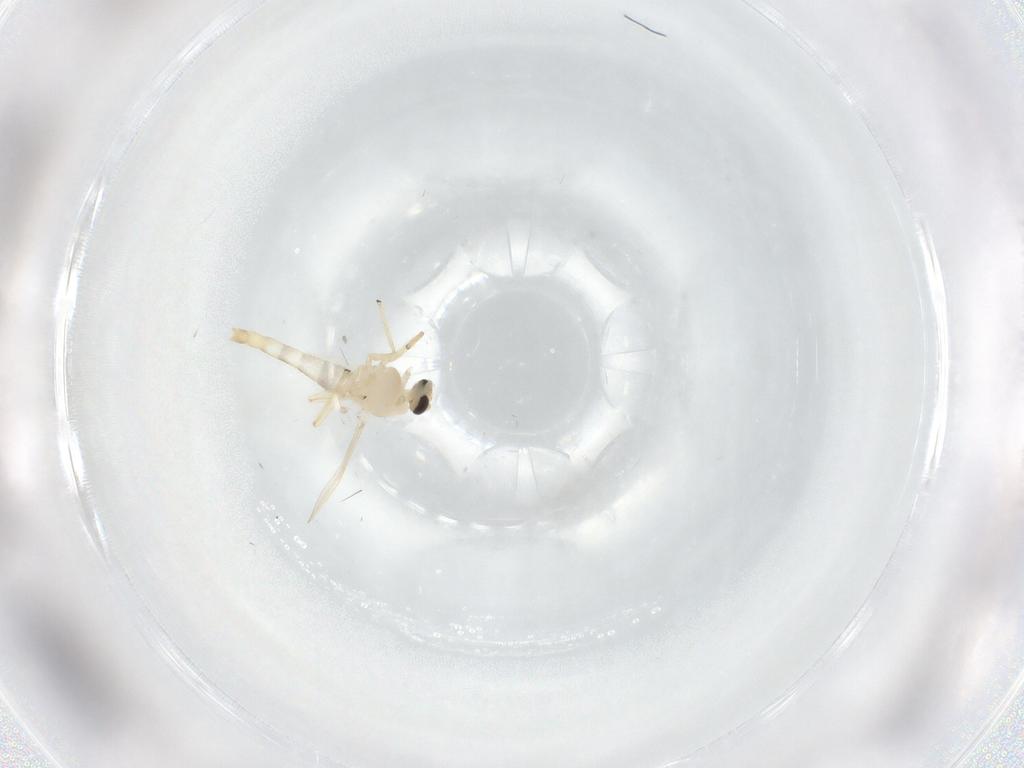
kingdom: Animalia
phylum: Arthropoda
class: Insecta
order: Diptera
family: Chironomidae
